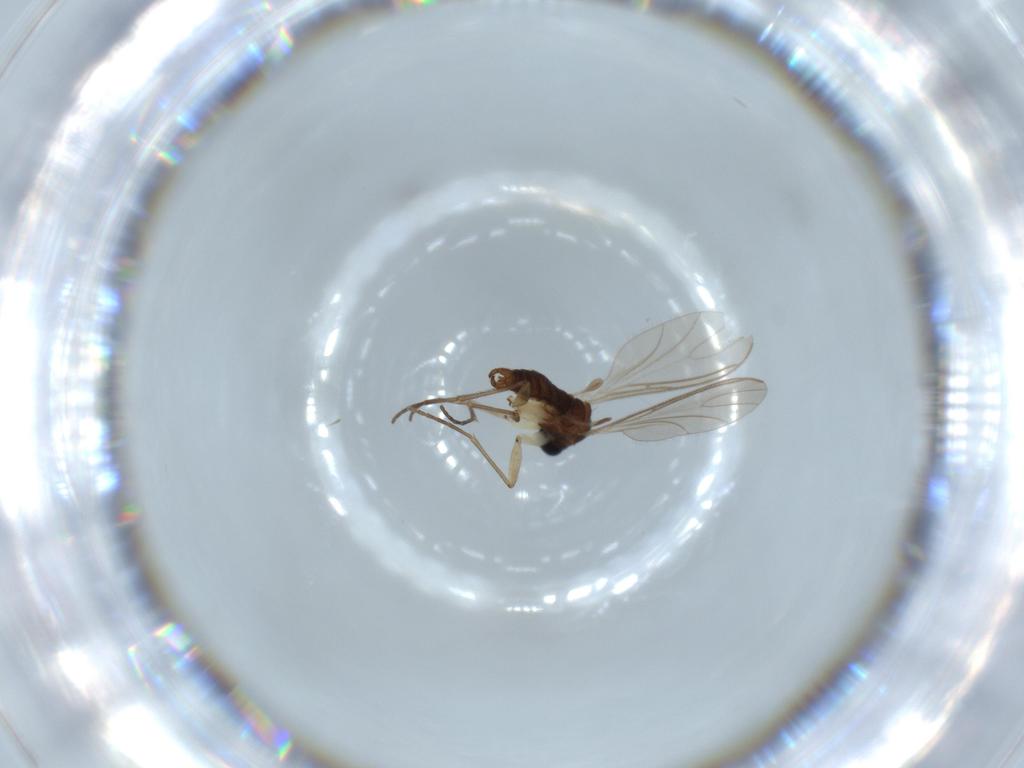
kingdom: Animalia
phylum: Arthropoda
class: Insecta
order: Diptera
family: Sciaridae
